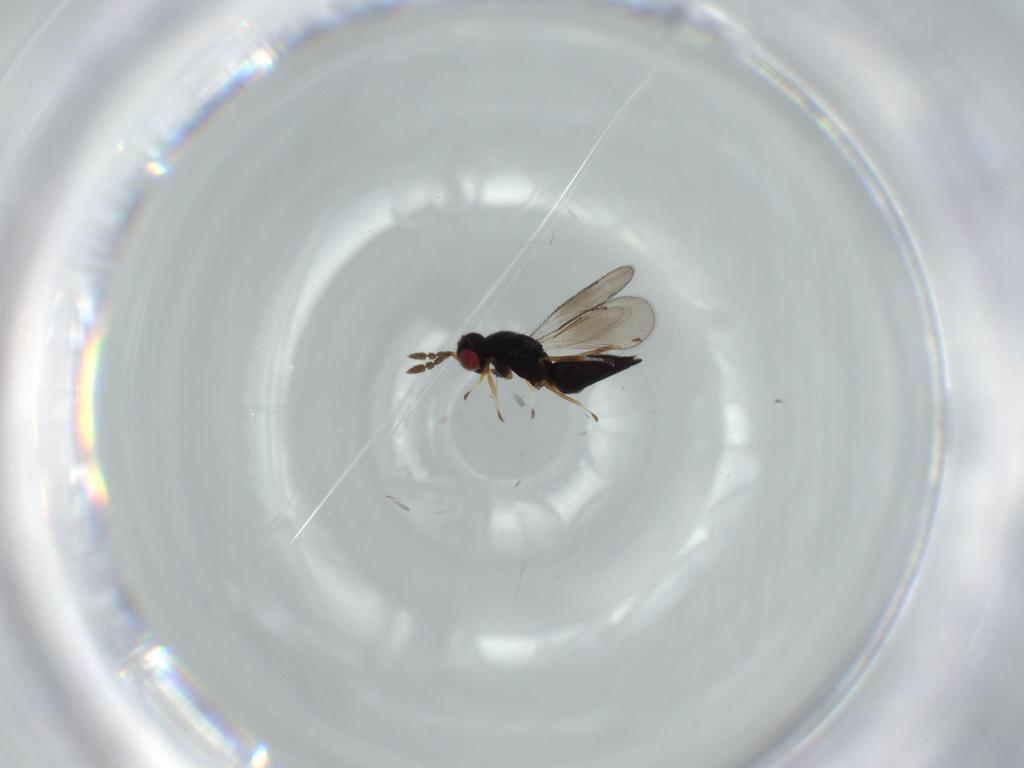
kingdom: Animalia
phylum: Arthropoda
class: Insecta
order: Hymenoptera
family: Eulophidae
